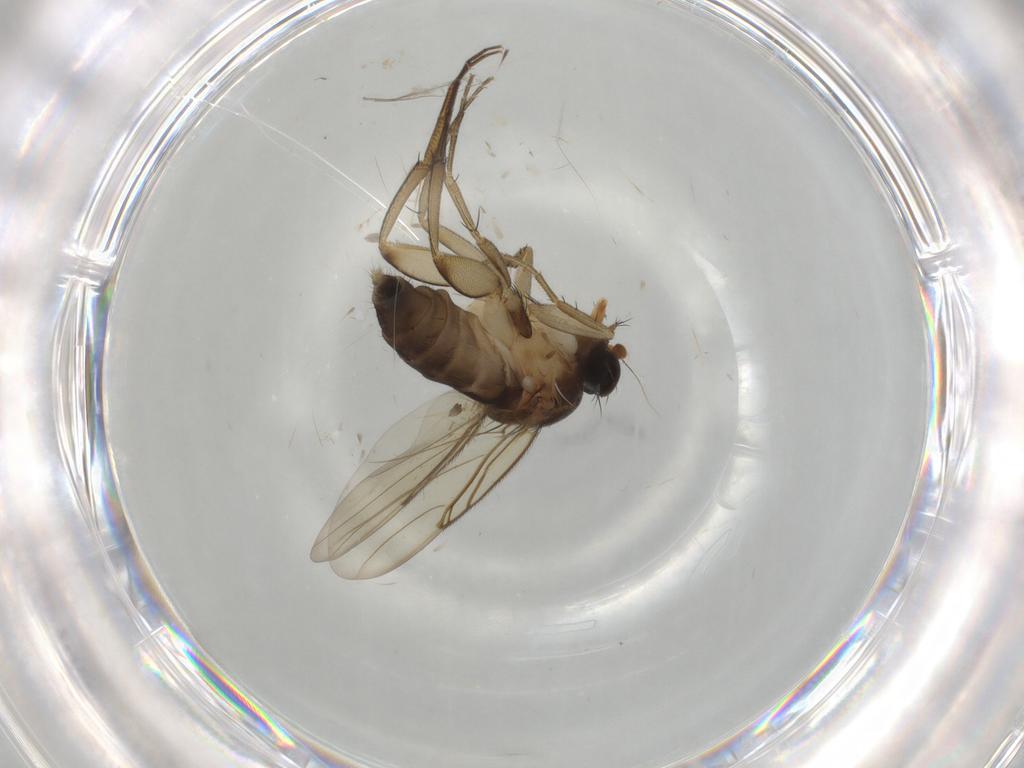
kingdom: Animalia
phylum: Arthropoda
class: Insecta
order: Diptera
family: Phoridae
